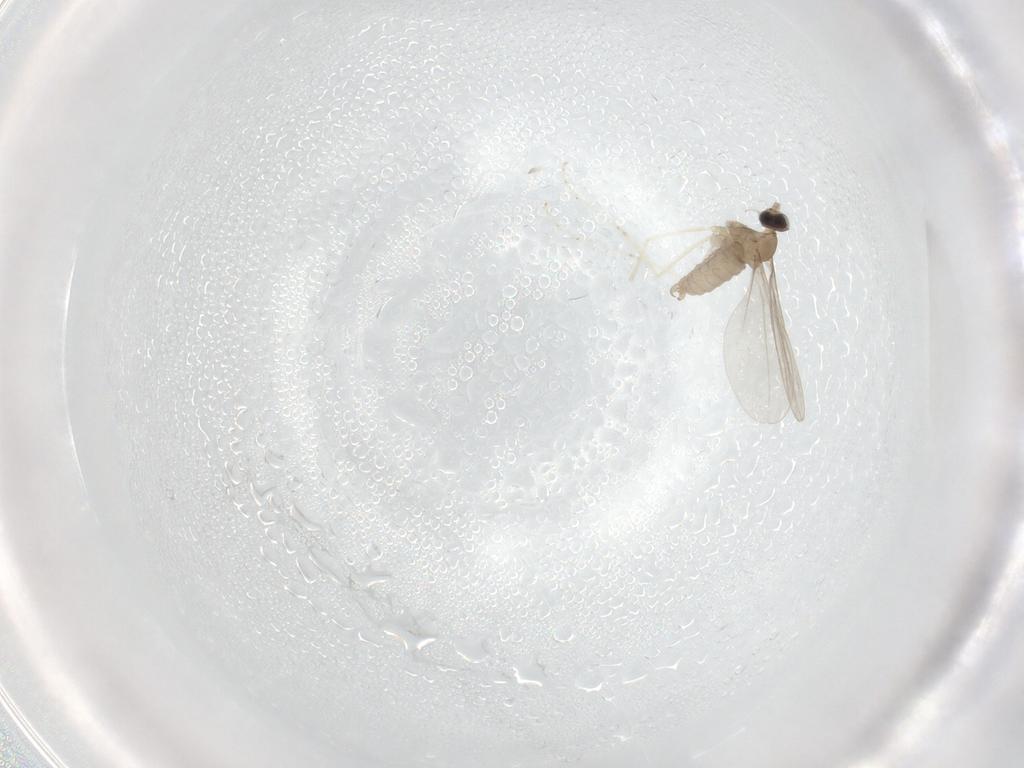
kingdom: Animalia
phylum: Arthropoda
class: Insecta
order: Diptera
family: Cecidomyiidae
